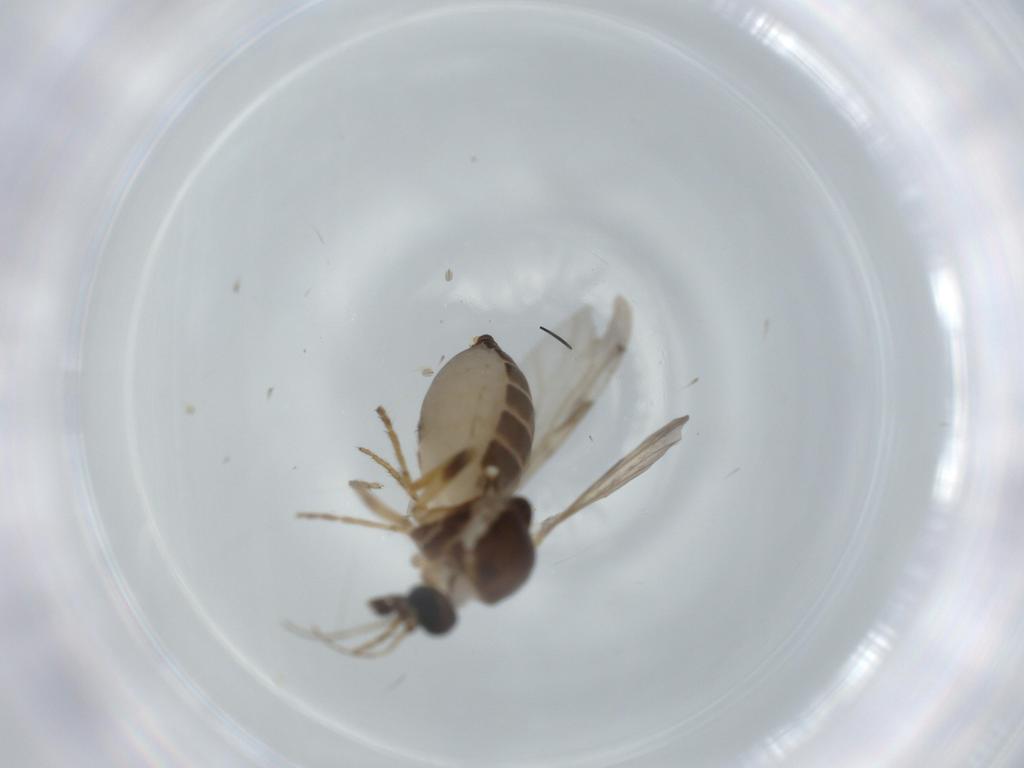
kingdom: Animalia
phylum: Arthropoda
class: Insecta
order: Diptera
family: Ceratopogonidae
